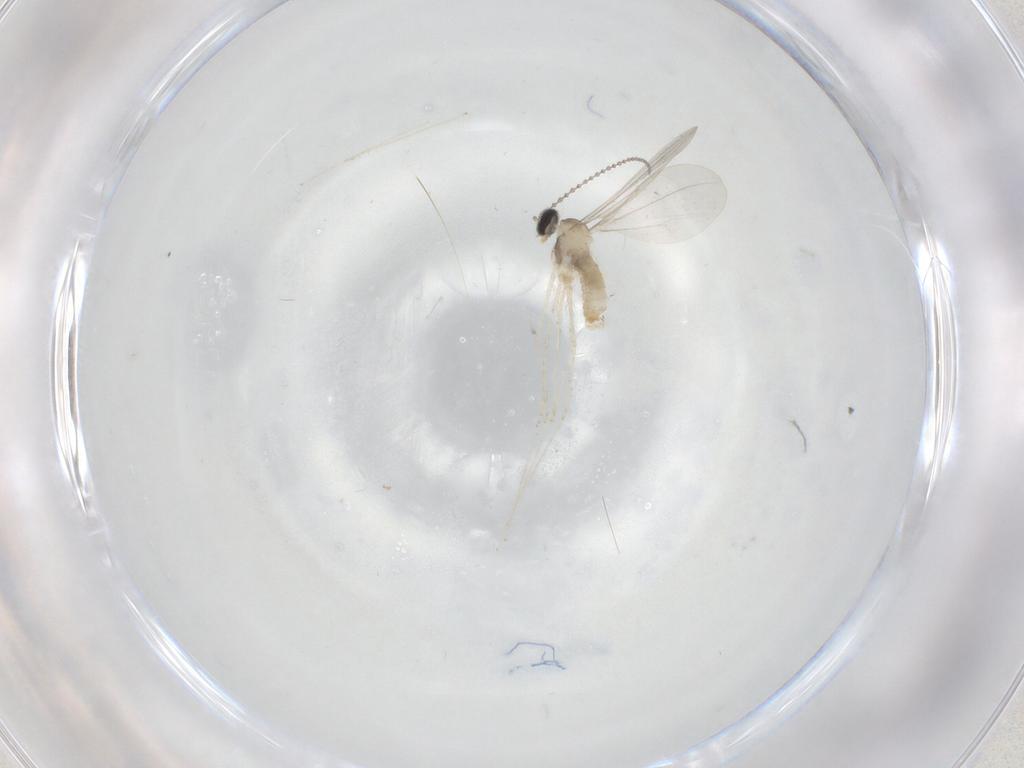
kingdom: Animalia
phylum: Arthropoda
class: Insecta
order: Diptera
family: Cecidomyiidae
